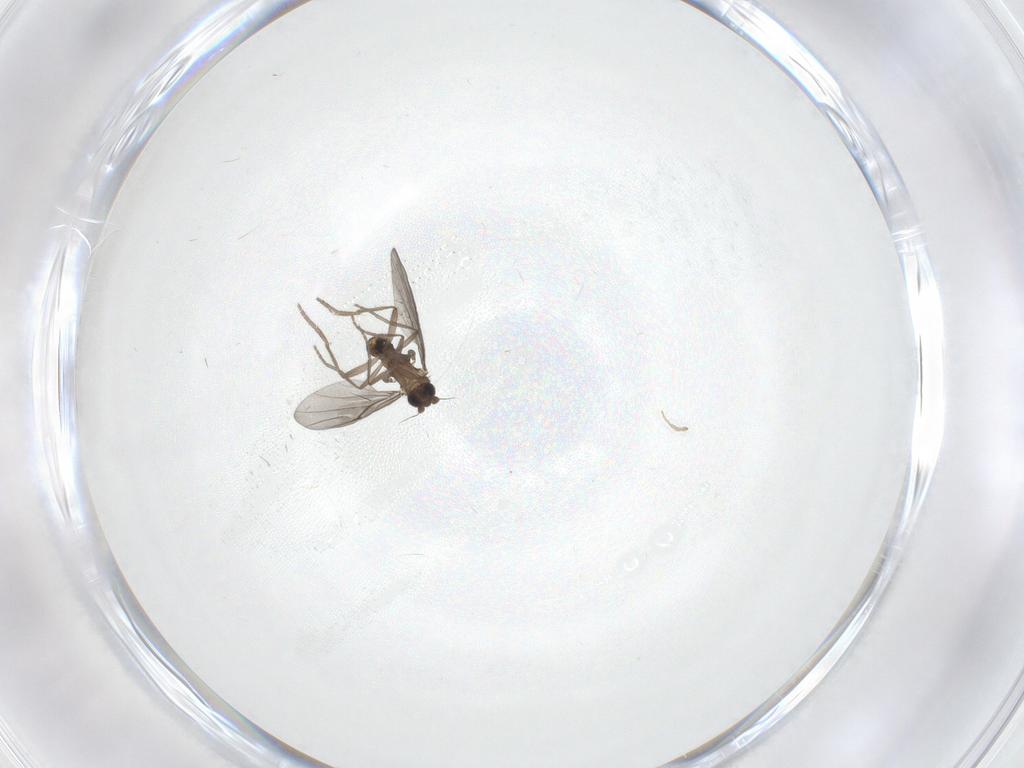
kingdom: Animalia
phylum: Arthropoda
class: Insecta
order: Diptera
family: Phoridae
